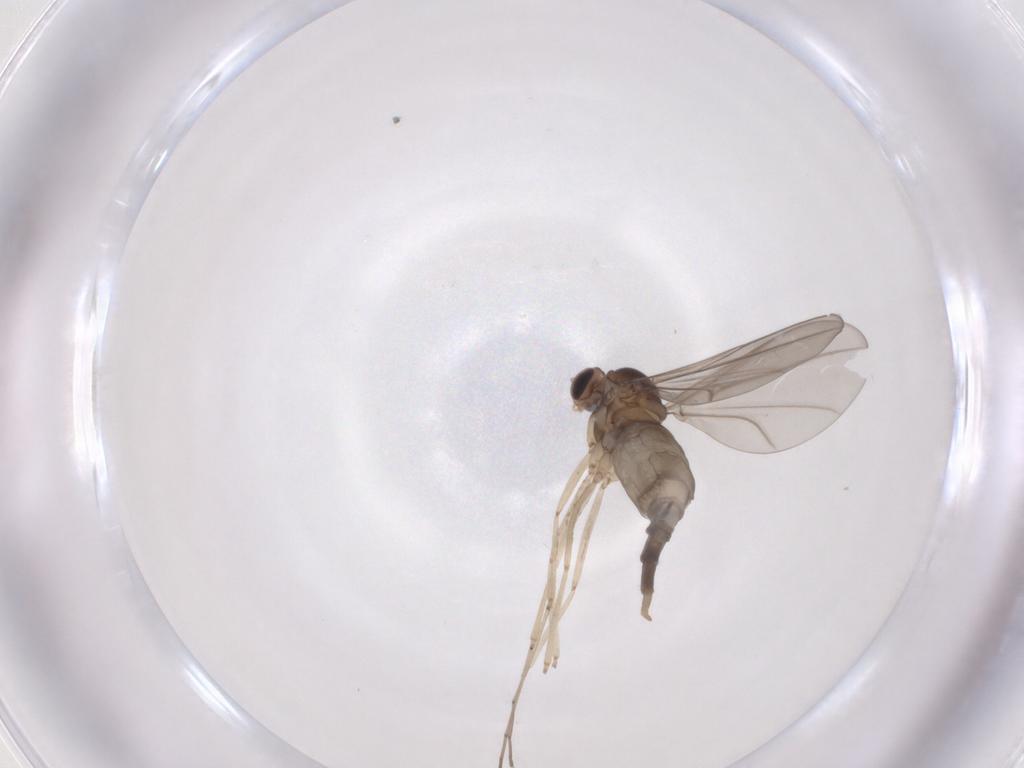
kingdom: Animalia
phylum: Arthropoda
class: Insecta
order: Diptera
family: Cecidomyiidae
